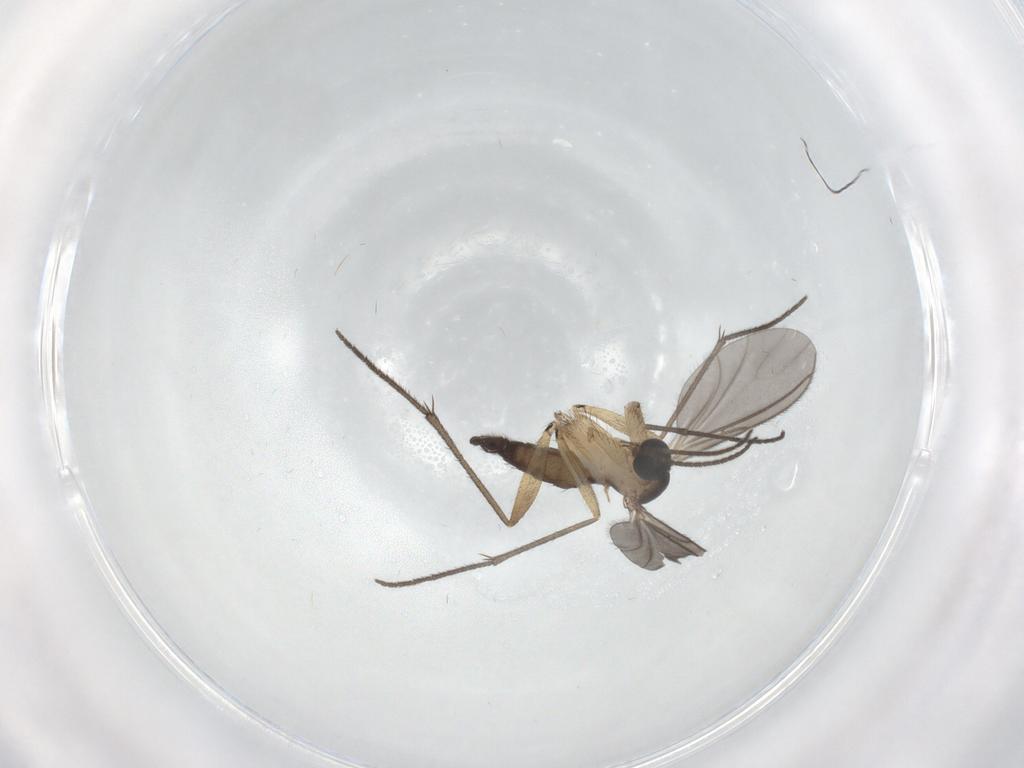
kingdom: Animalia
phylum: Arthropoda
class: Insecta
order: Diptera
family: Sciaridae
